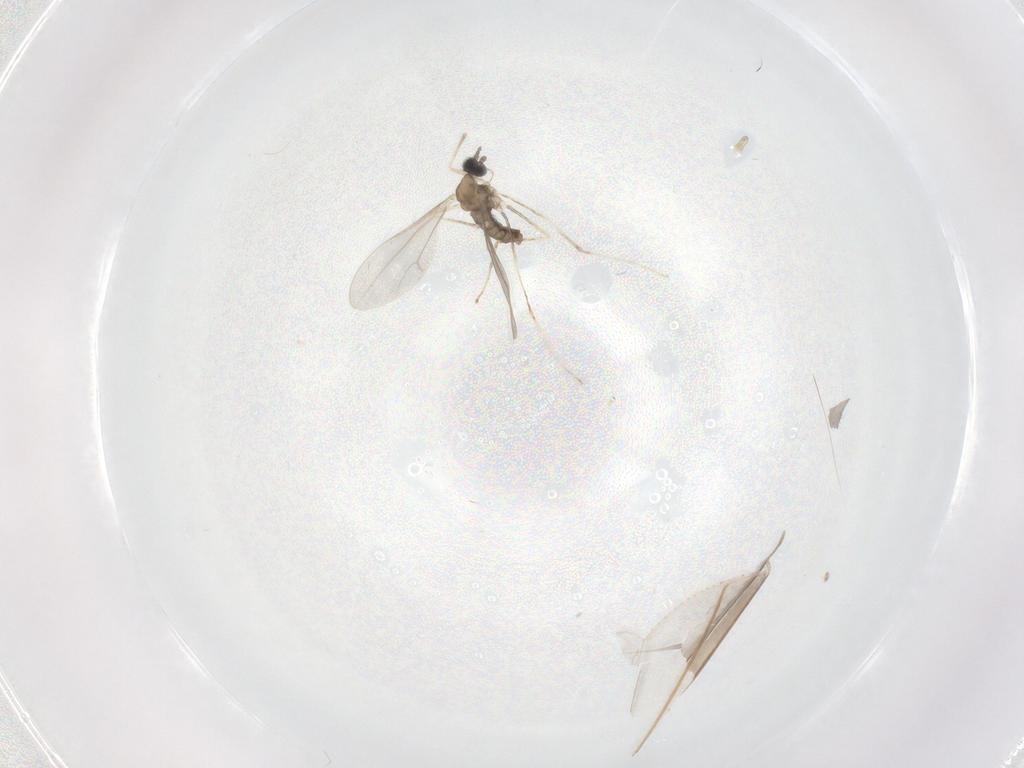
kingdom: Animalia
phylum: Arthropoda
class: Insecta
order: Diptera
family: Cecidomyiidae
